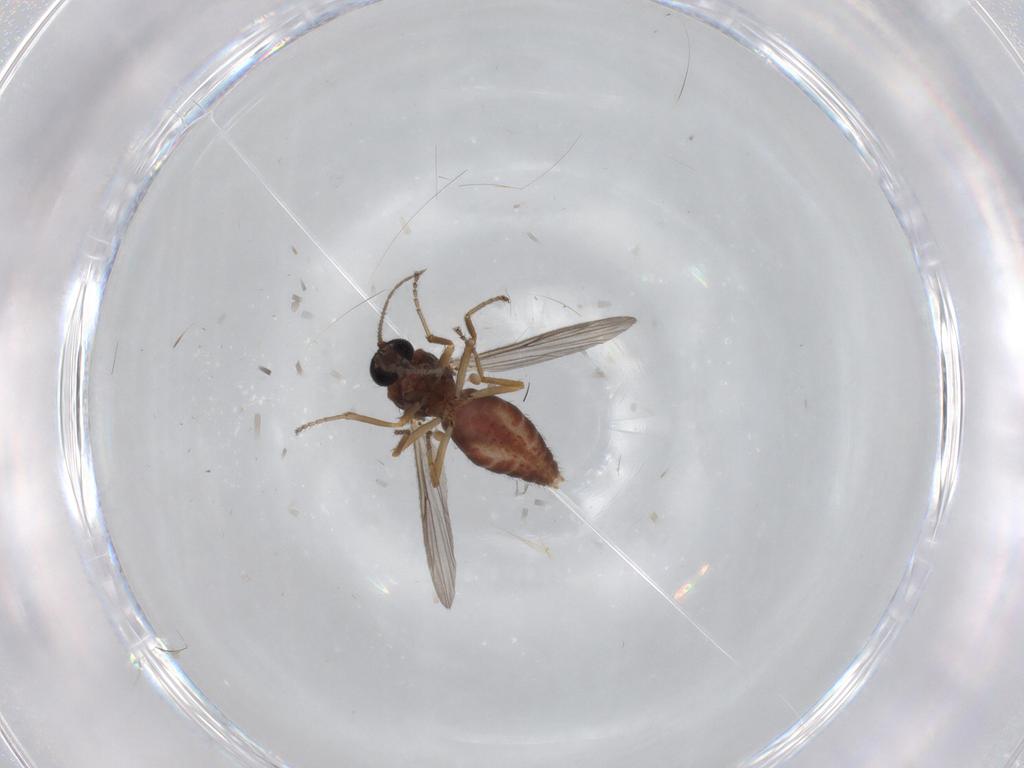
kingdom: Animalia
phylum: Arthropoda
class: Insecta
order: Diptera
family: Ceratopogonidae
